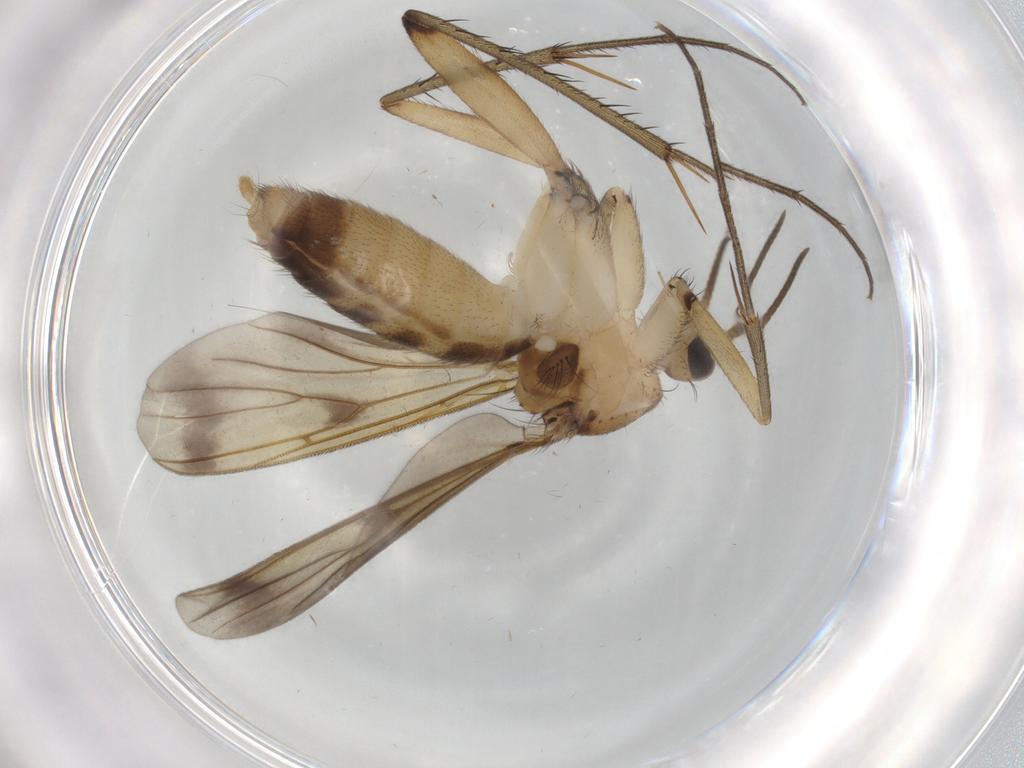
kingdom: Animalia
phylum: Arthropoda
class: Insecta
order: Diptera
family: Mycetophilidae
